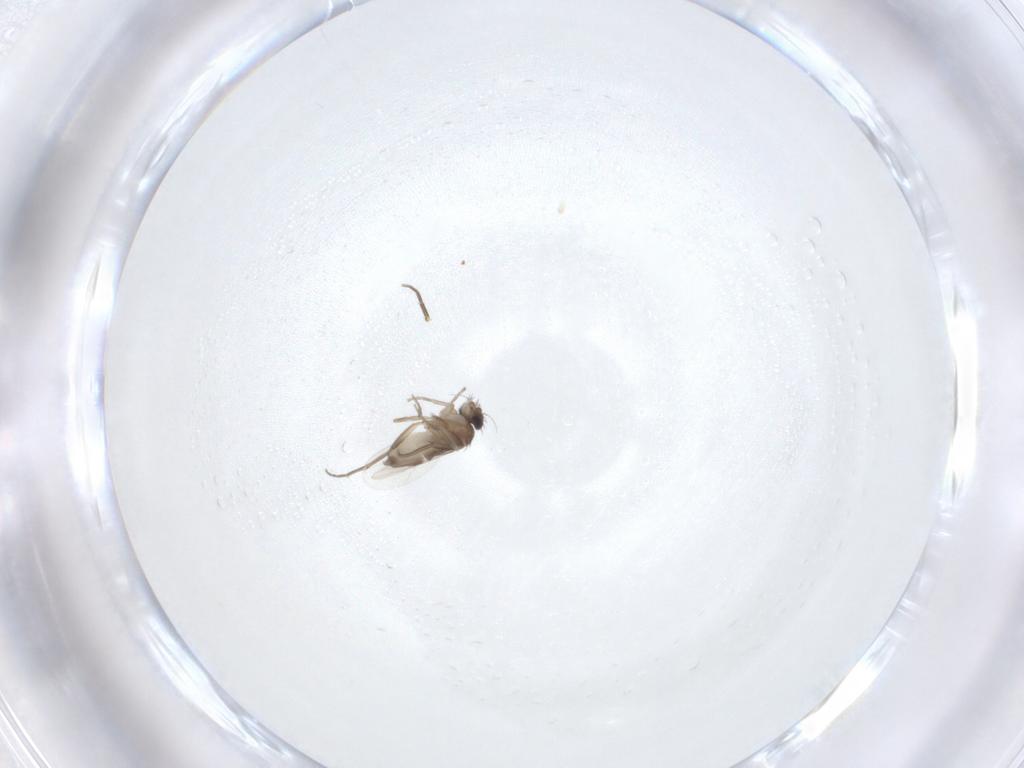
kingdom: Animalia
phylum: Arthropoda
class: Insecta
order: Diptera
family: Phoridae
